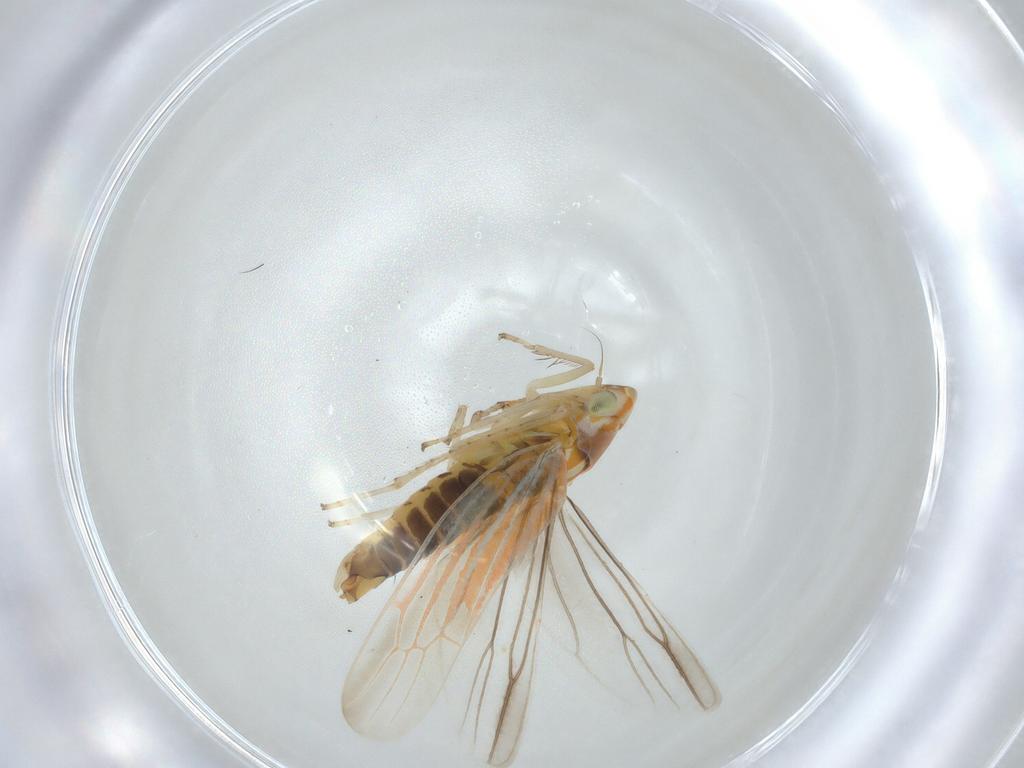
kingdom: Animalia
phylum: Arthropoda
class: Insecta
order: Hemiptera
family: Cicadellidae
